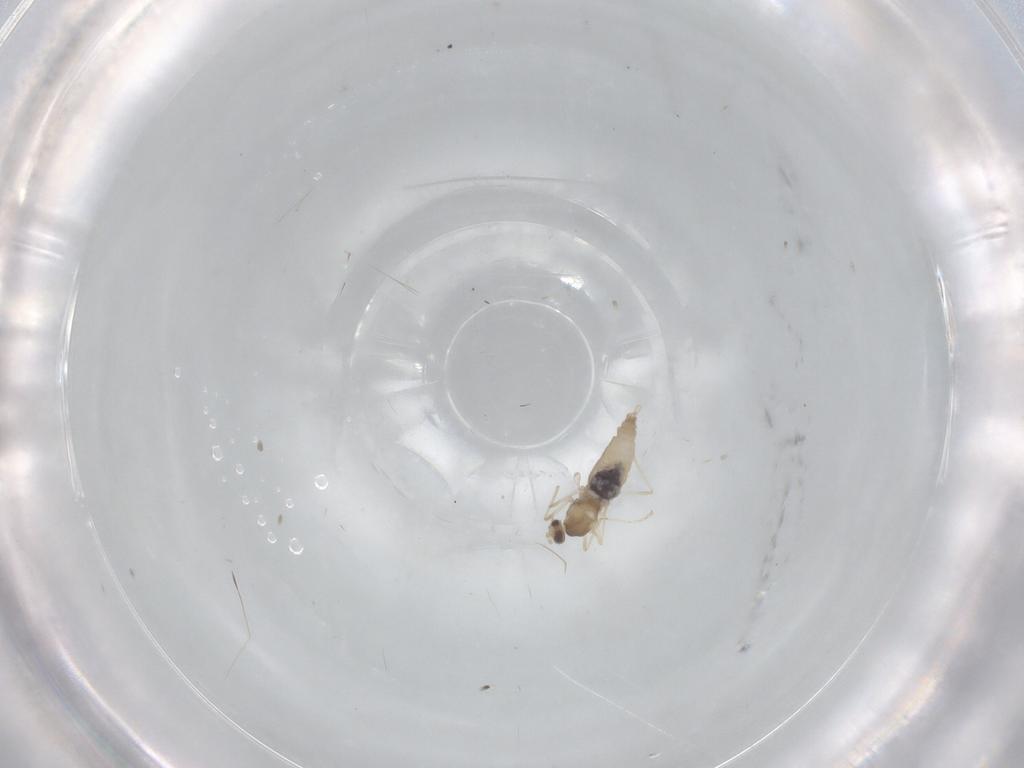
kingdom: Animalia
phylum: Arthropoda
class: Insecta
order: Diptera
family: Cecidomyiidae
